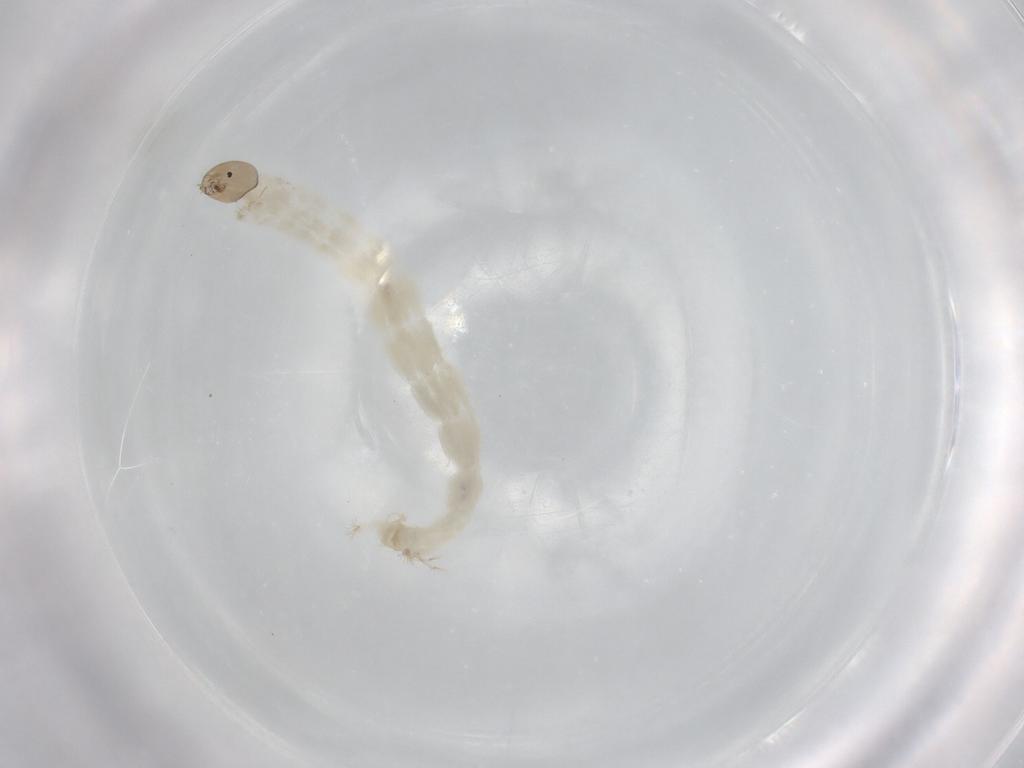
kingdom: Animalia
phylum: Arthropoda
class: Insecta
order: Diptera
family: Chironomidae
